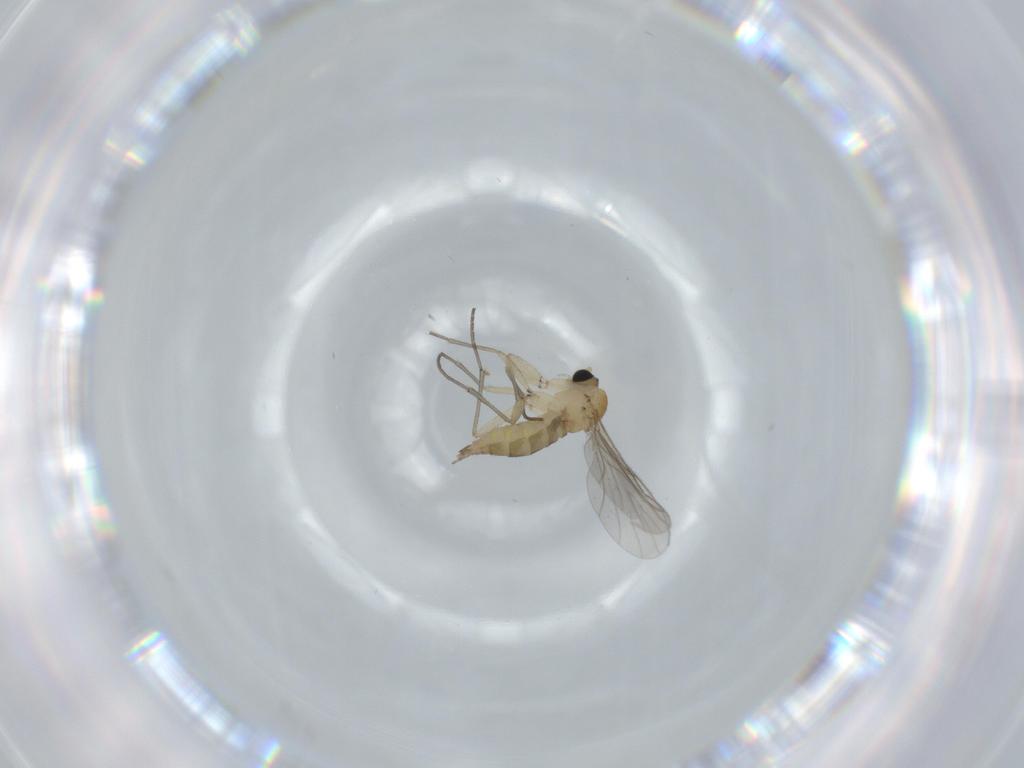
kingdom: Animalia
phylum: Arthropoda
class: Insecta
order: Diptera
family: Sciaridae
